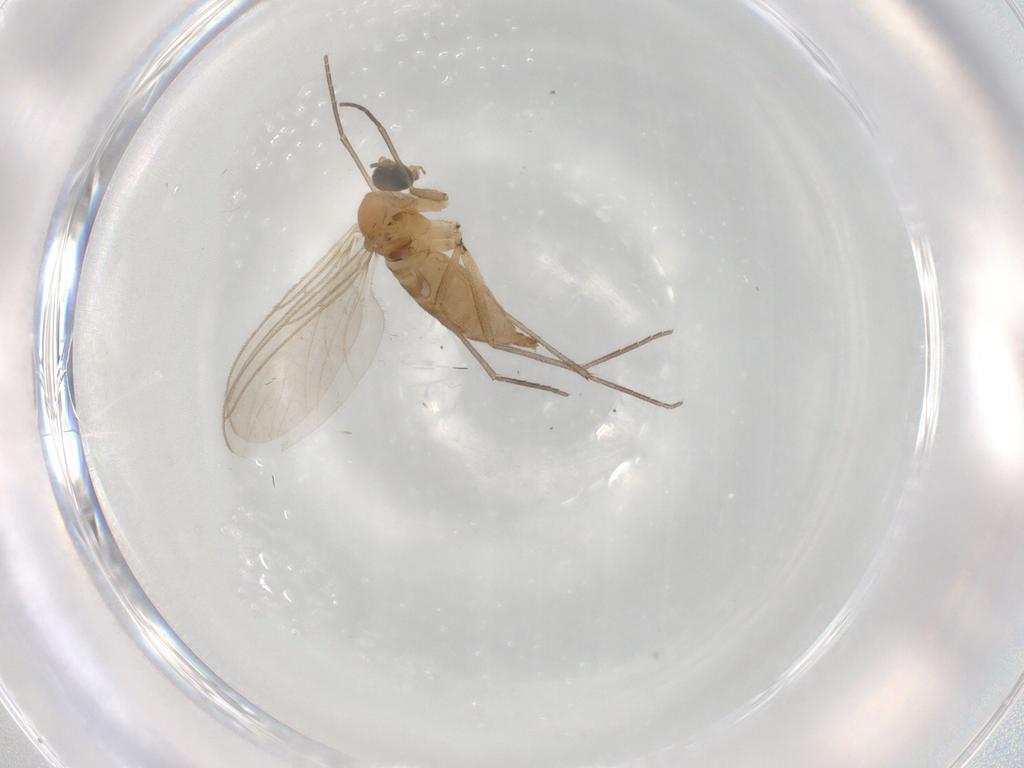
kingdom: Animalia
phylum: Arthropoda
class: Insecta
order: Diptera
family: Sciaridae
